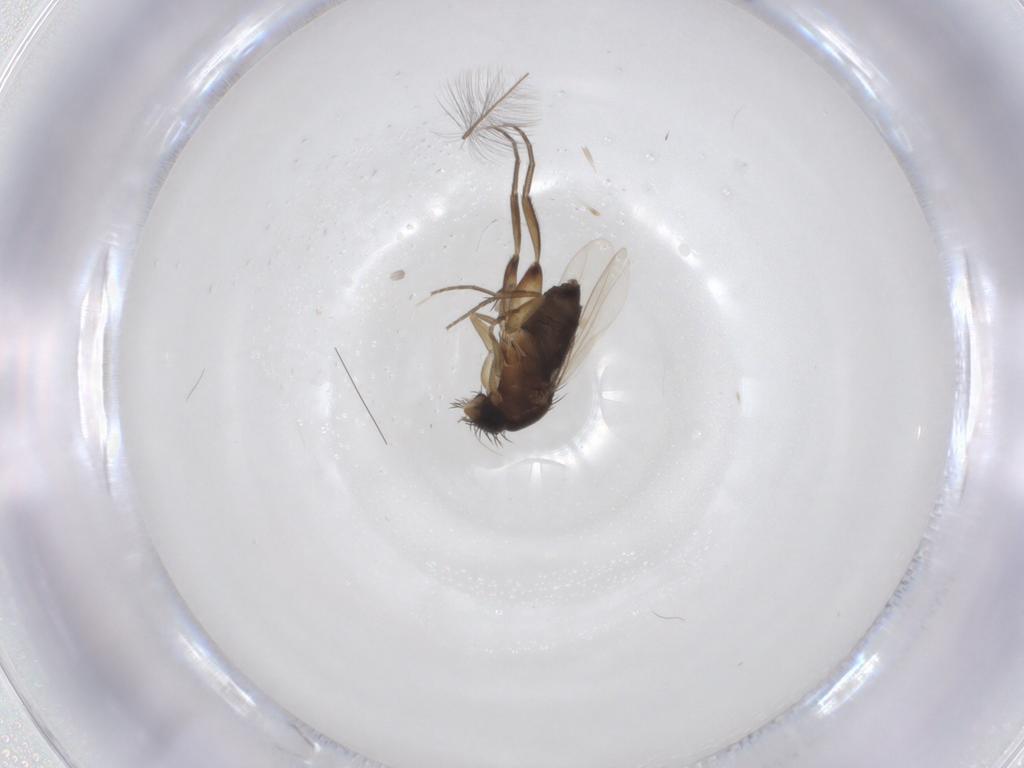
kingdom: Animalia
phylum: Arthropoda
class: Insecta
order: Diptera
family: Phoridae
